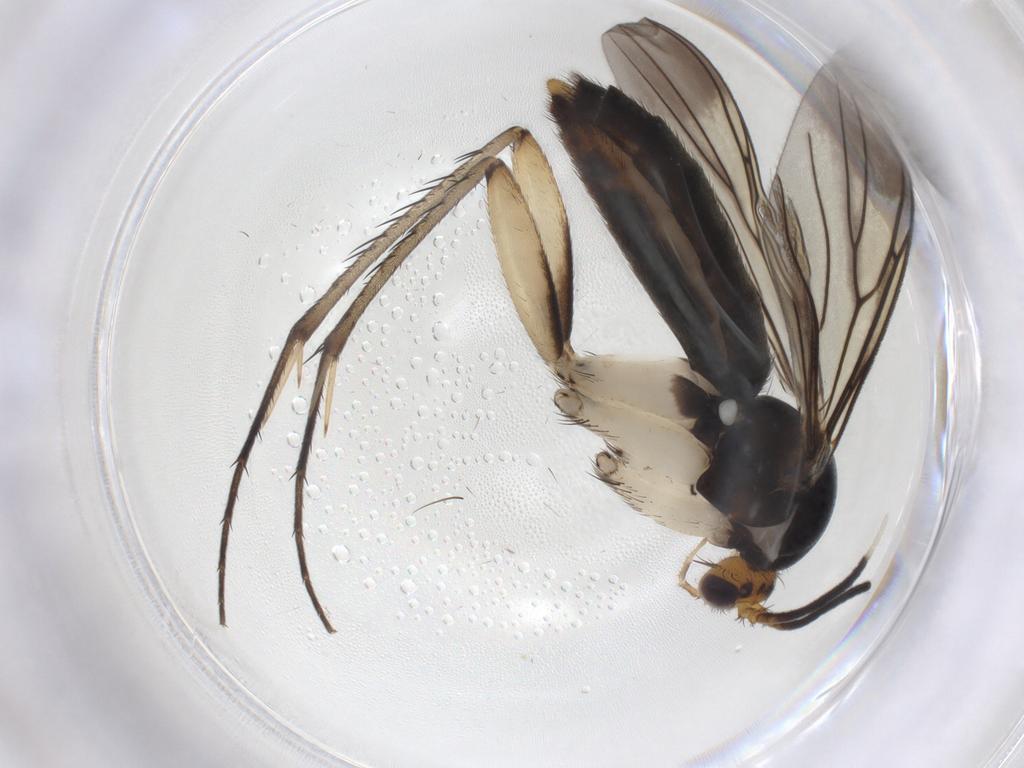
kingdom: Animalia
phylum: Arthropoda
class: Insecta
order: Diptera
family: Mycetophilidae
